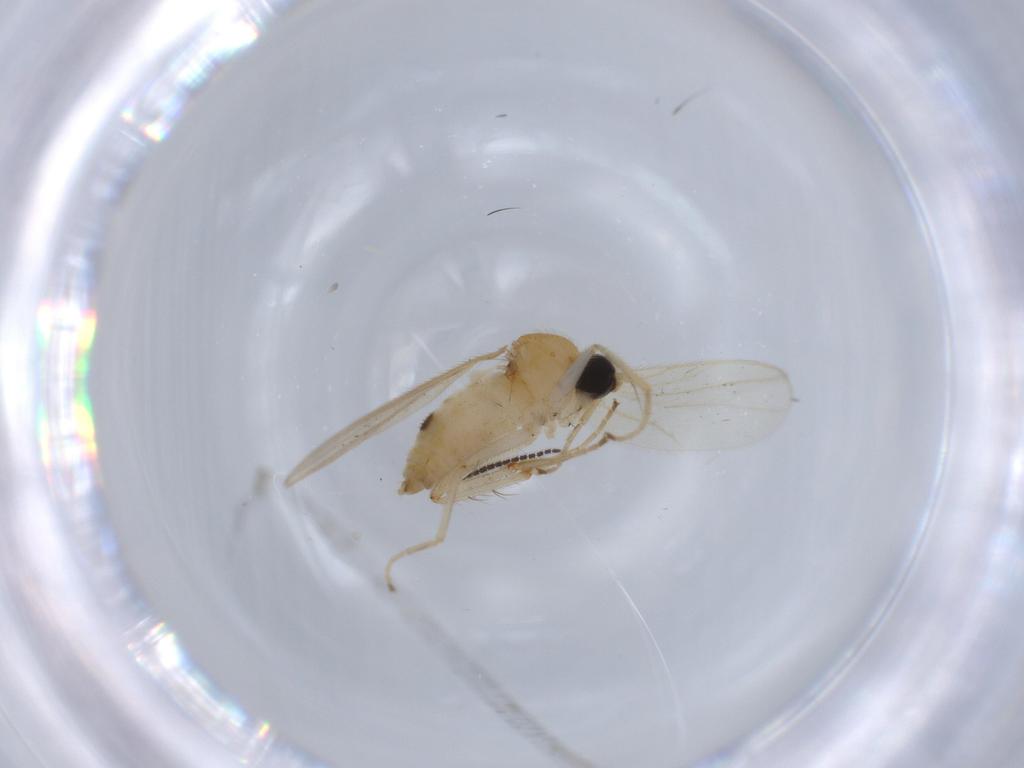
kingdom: Animalia
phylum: Arthropoda
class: Insecta
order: Diptera
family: Hybotidae
